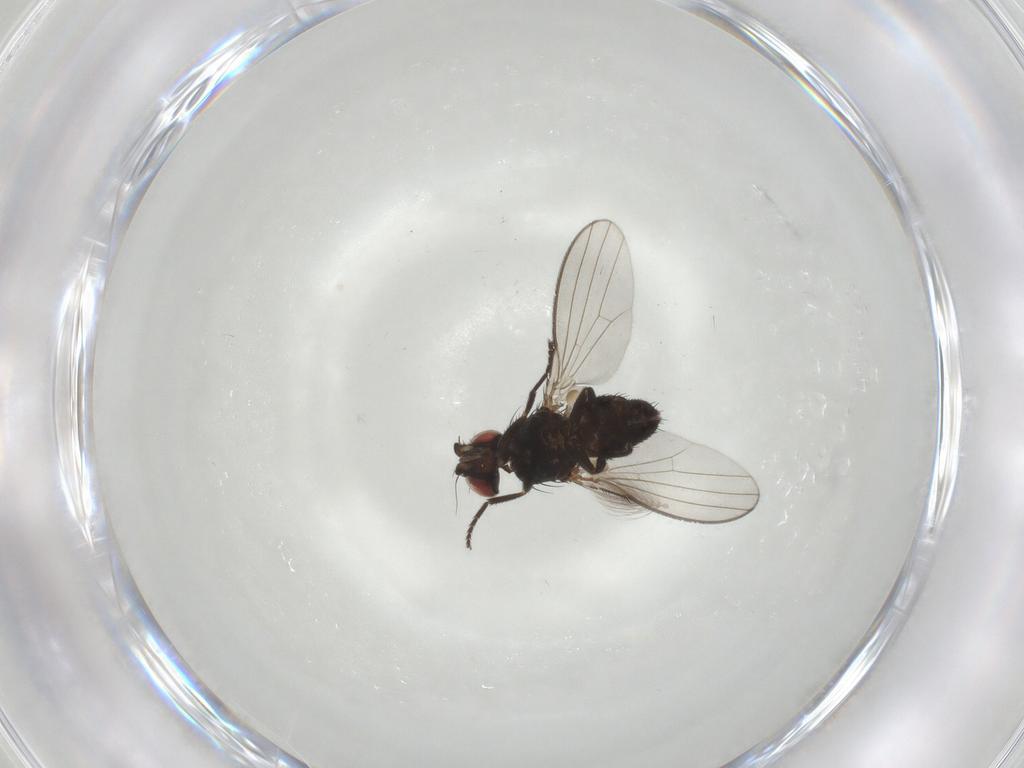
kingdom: Animalia
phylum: Arthropoda
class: Insecta
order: Diptera
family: Milichiidae
